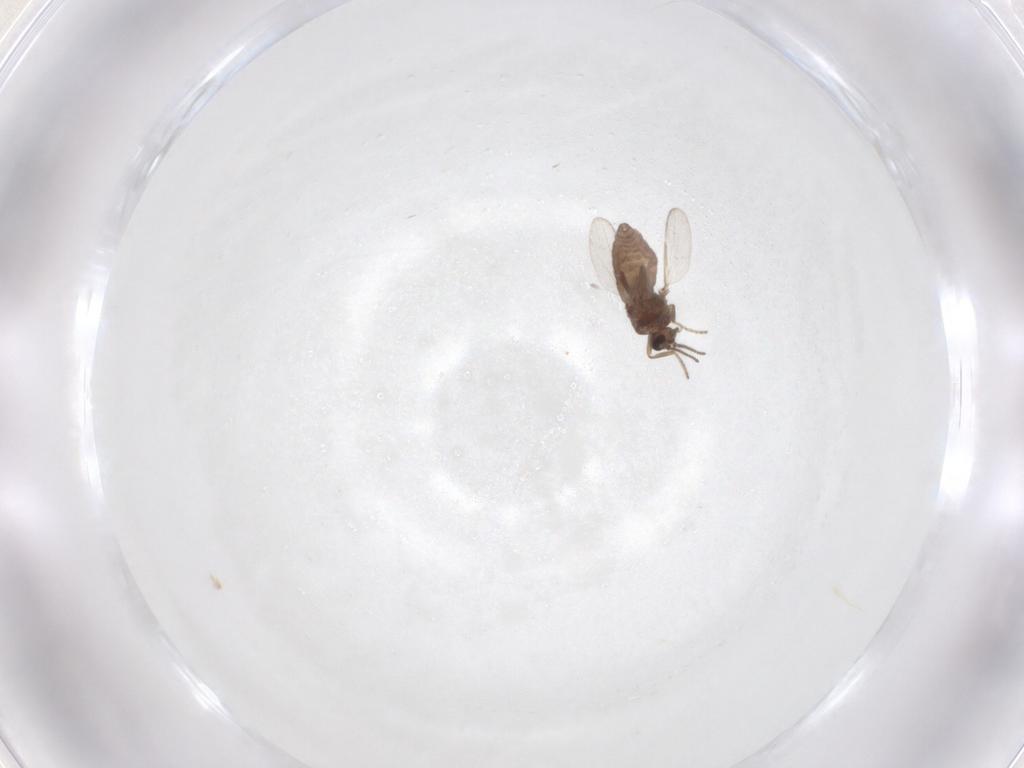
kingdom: Animalia
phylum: Arthropoda
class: Insecta
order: Diptera
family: Ceratopogonidae
